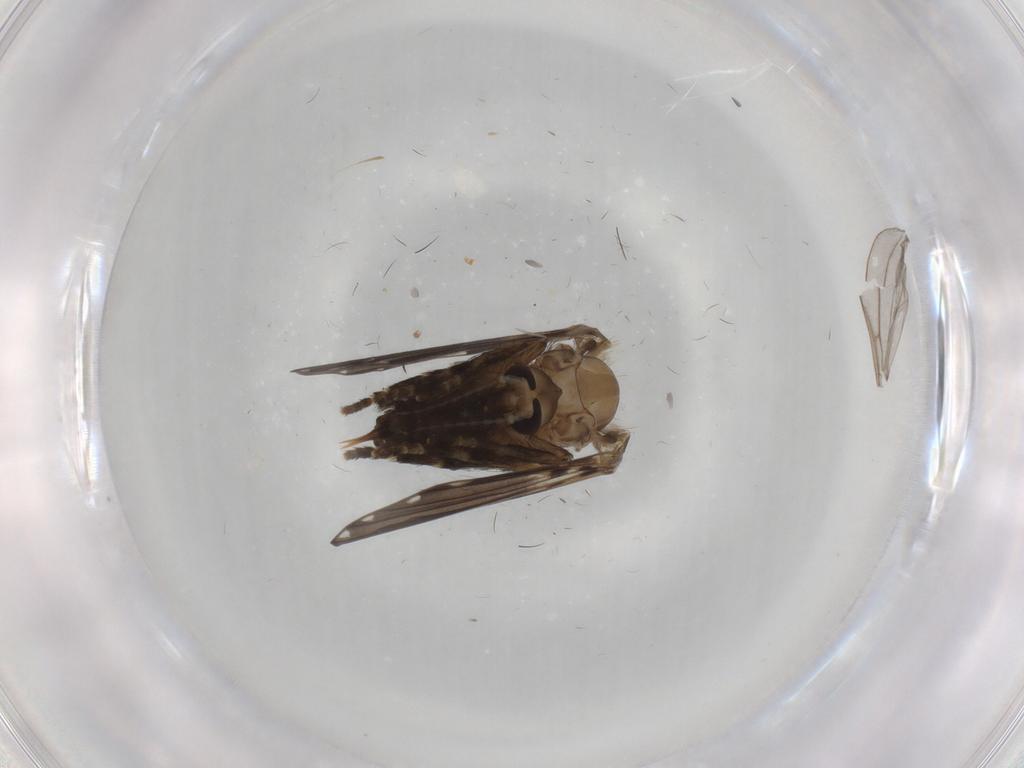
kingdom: Animalia
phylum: Arthropoda
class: Insecta
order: Diptera
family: Psychodidae
